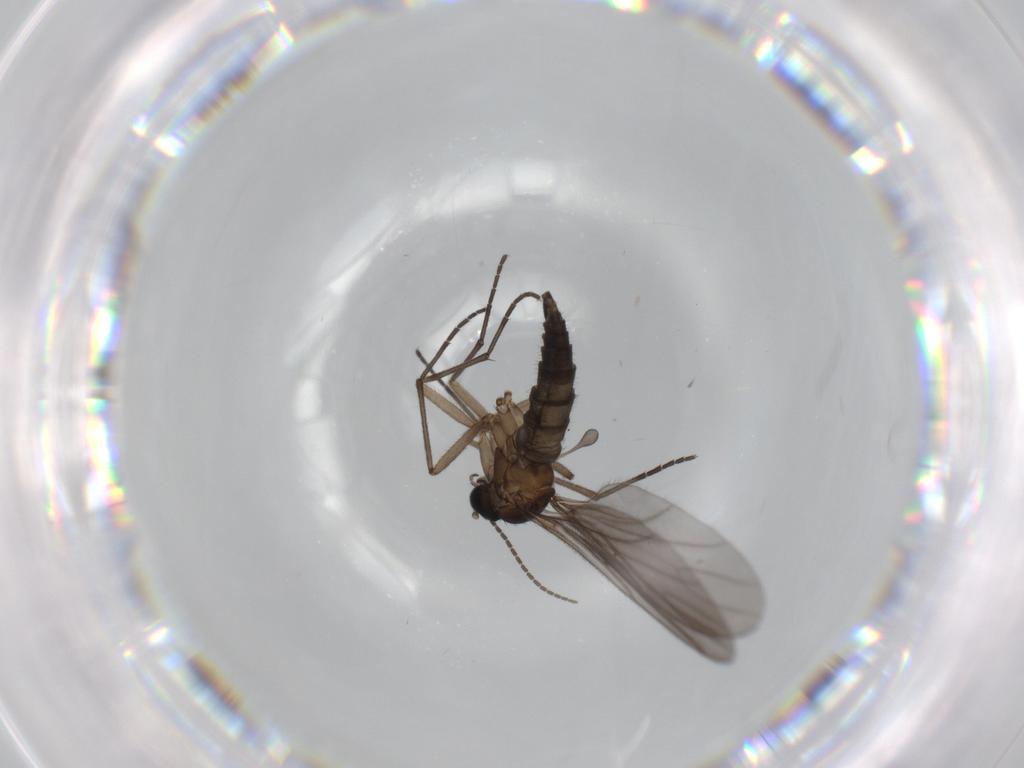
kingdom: Animalia
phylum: Arthropoda
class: Insecta
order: Diptera
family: Sciaridae
